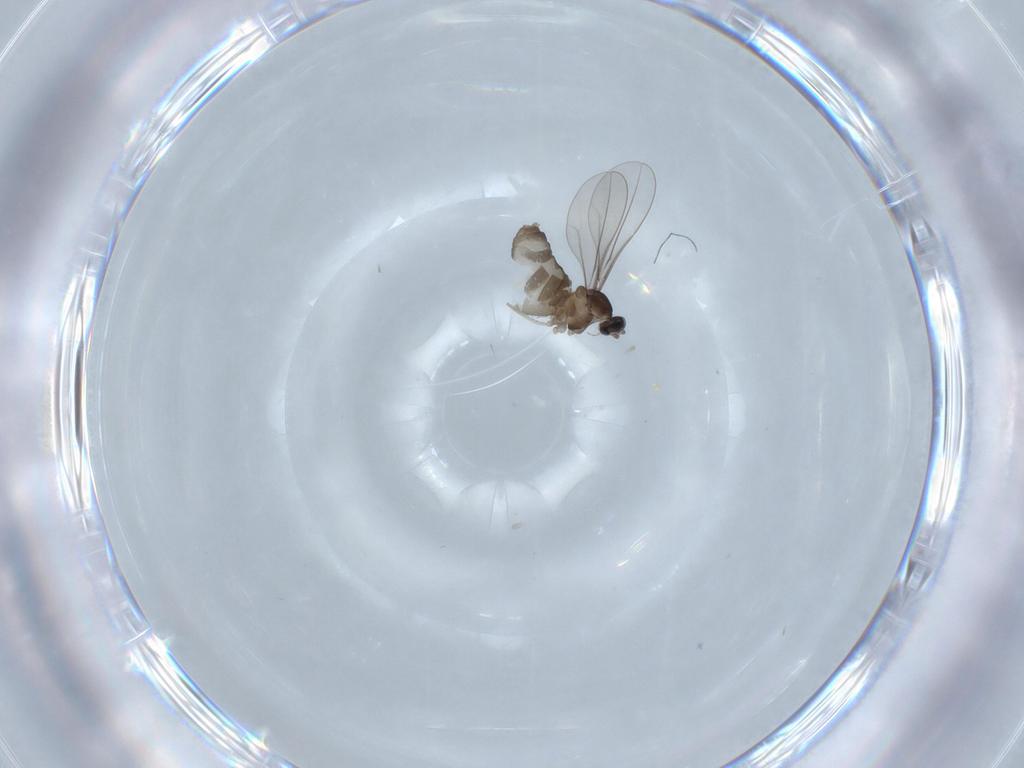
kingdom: Animalia
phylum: Arthropoda
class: Insecta
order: Diptera
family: Cecidomyiidae
